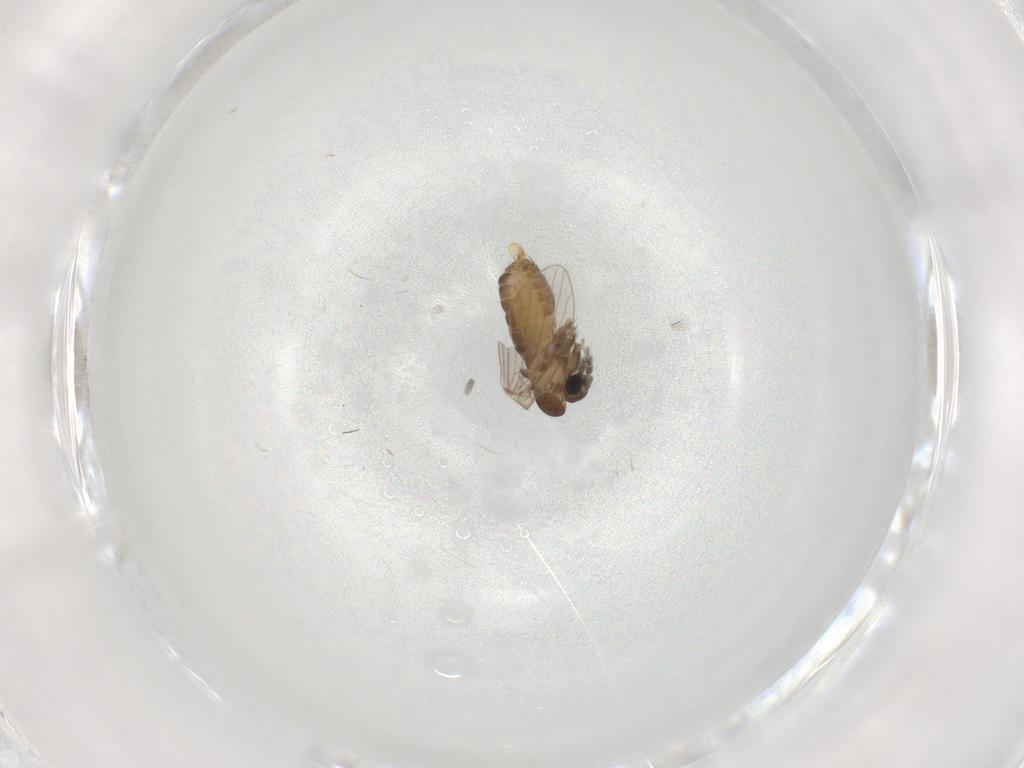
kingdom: Animalia
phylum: Arthropoda
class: Insecta
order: Diptera
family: Psychodidae
